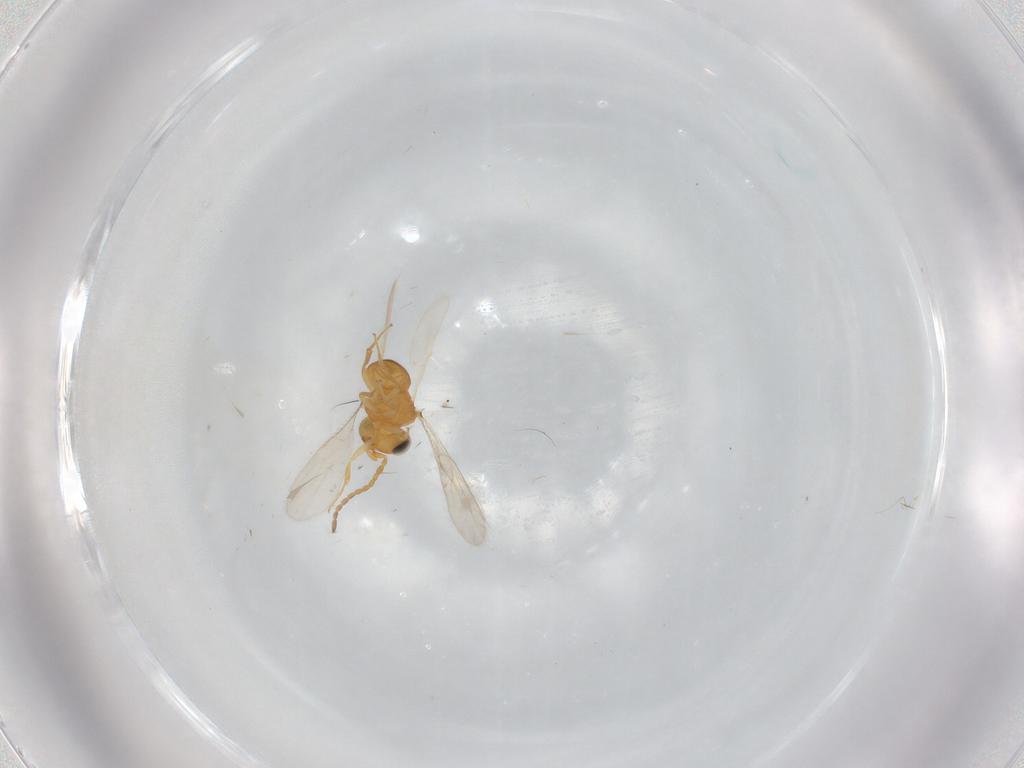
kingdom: Animalia
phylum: Arthropoda
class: Insecta
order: Hymenoptera
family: Scelionidae
